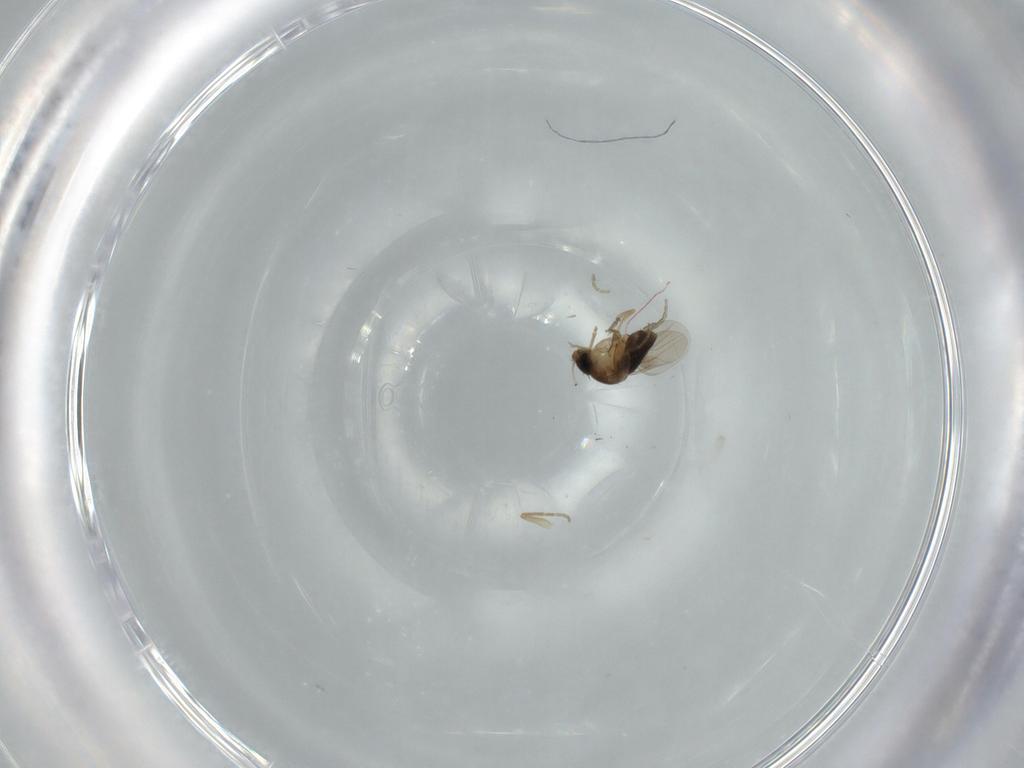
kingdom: Animalia
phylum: Arthropoda
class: Insecta
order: Diptera
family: Phoridae
